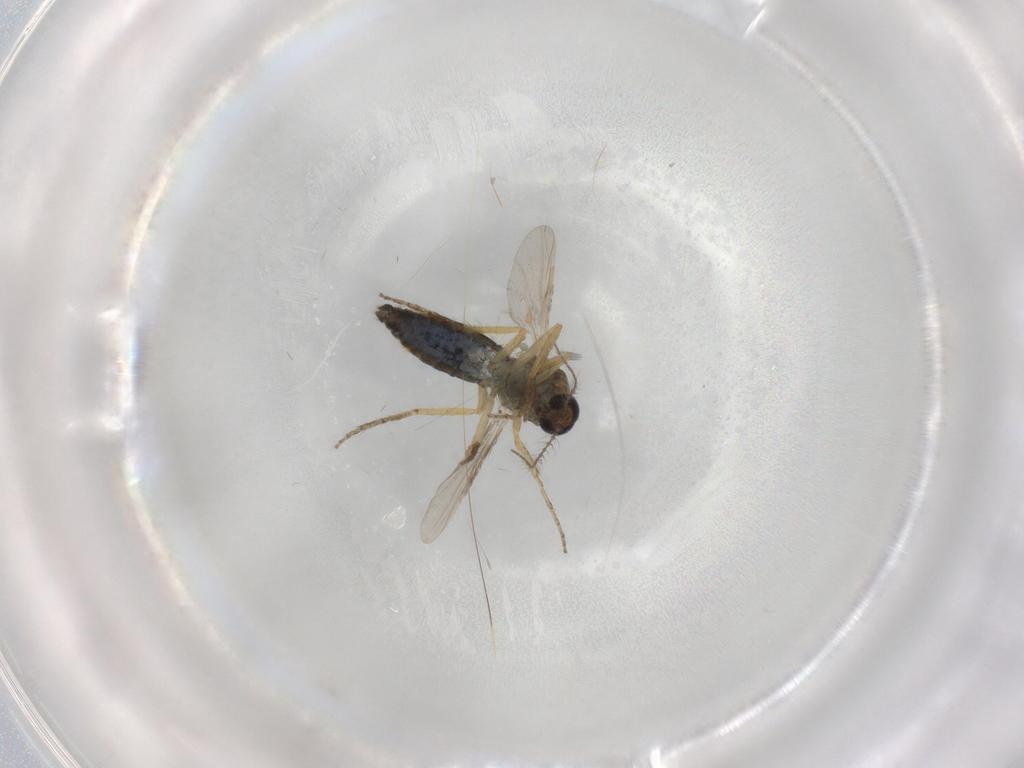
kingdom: Animalia
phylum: Arthropoda
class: Insecta
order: Diptera
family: Ceratopogonidae
